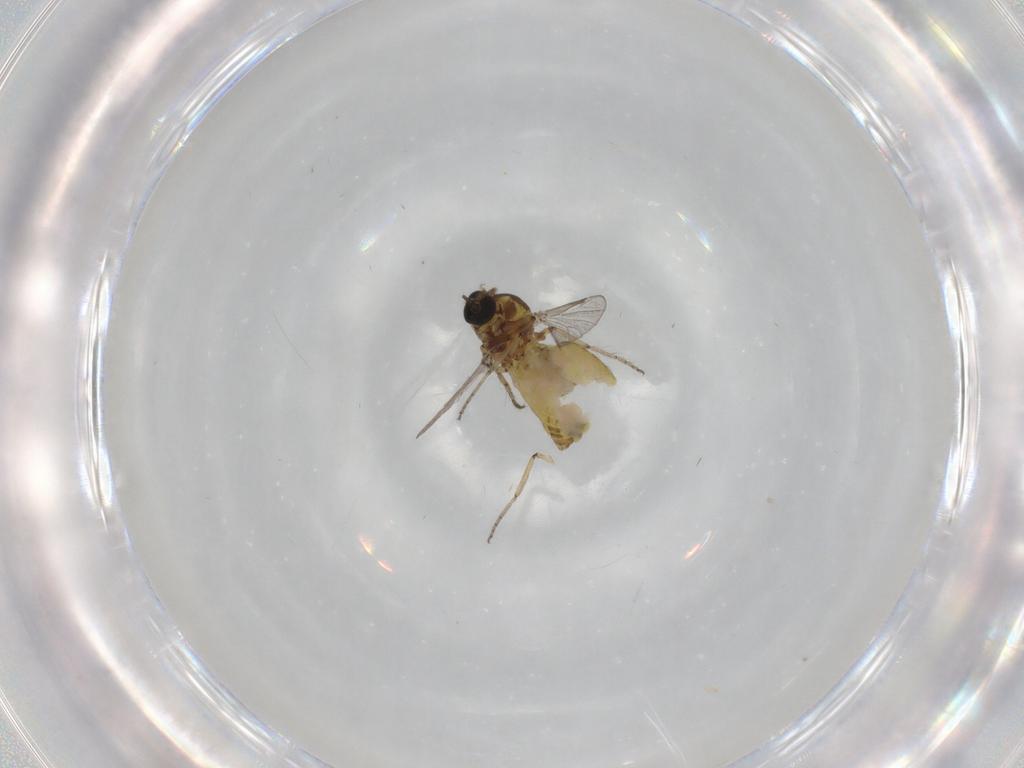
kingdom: Animalia
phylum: Arthropoda
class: Insecta
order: Diptera
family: Ceratopogonidae
